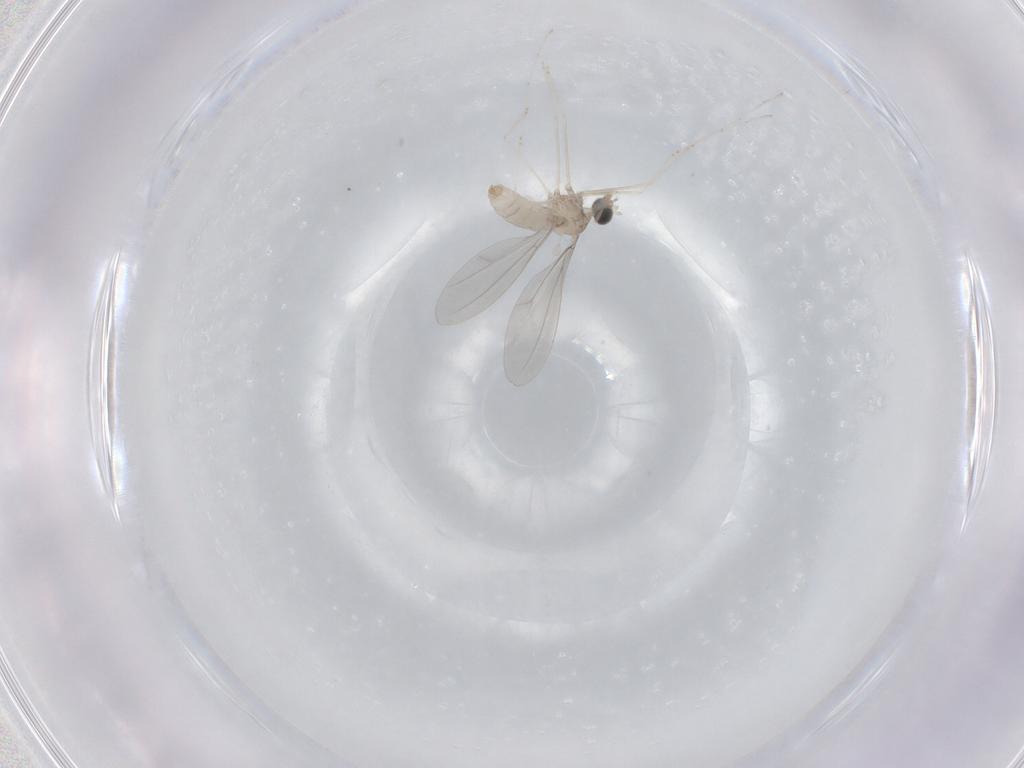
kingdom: Animalia
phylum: Arthropoda
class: Insecta
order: Diptera
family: Cecidomyiidae
